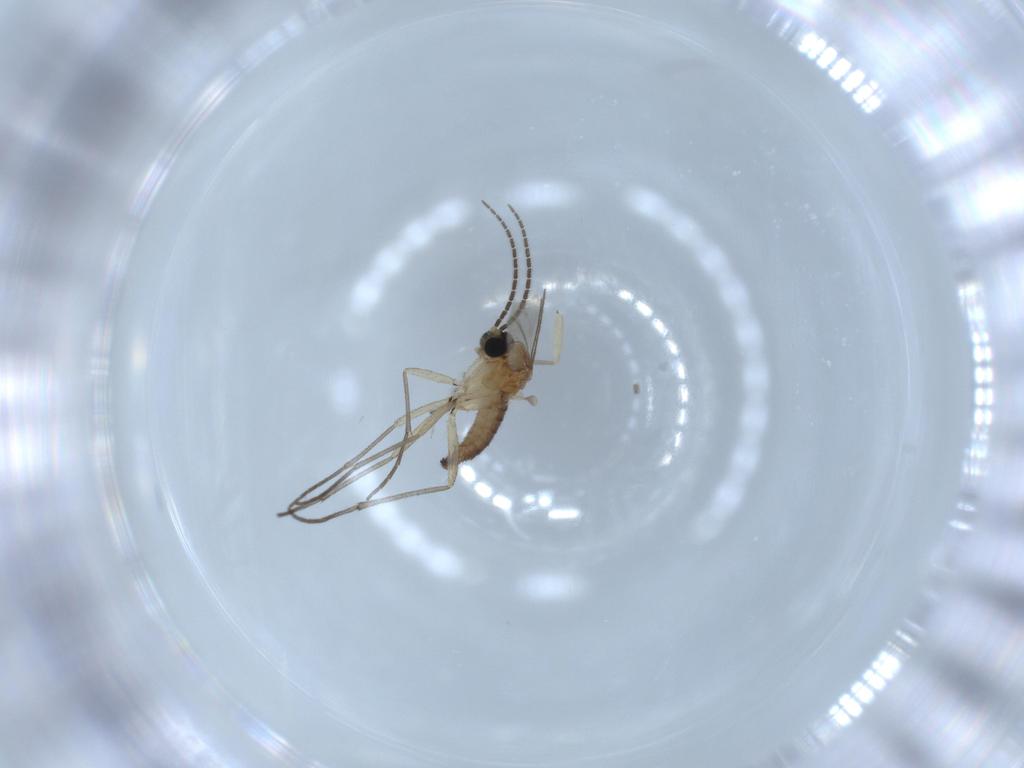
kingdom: Animalia
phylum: Arthropoda
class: Insecta
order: Diptera
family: Sciaridae
